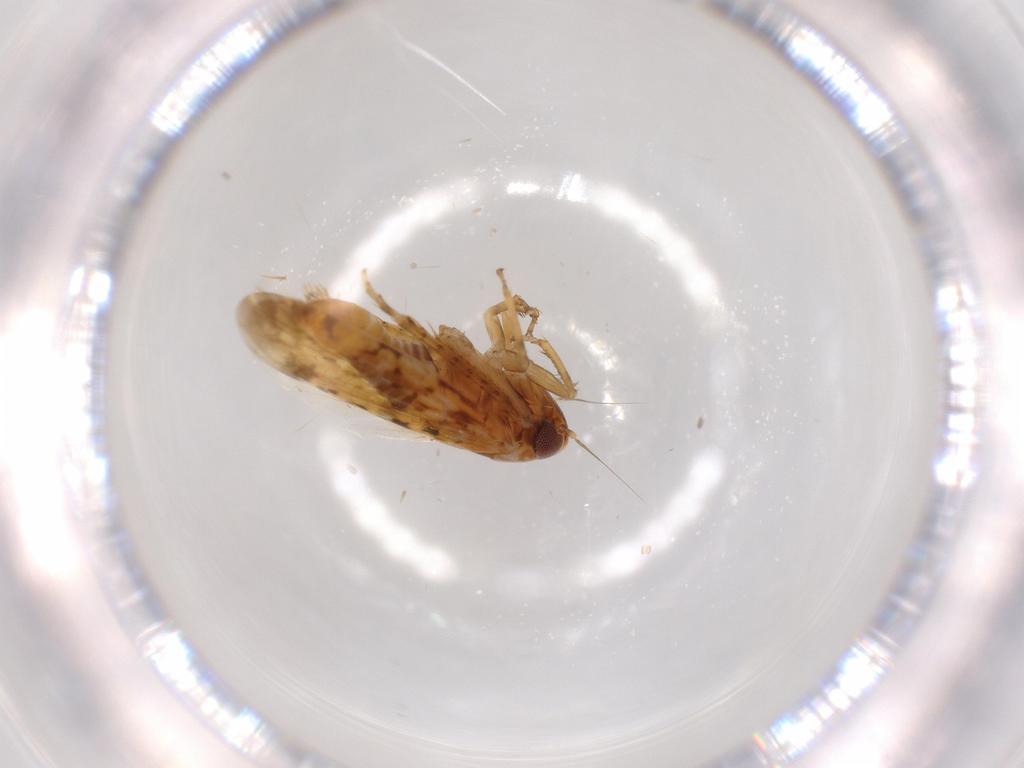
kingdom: Animalia
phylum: Arthropoda
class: Insecta
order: Hemiptera
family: Cicadellidae
